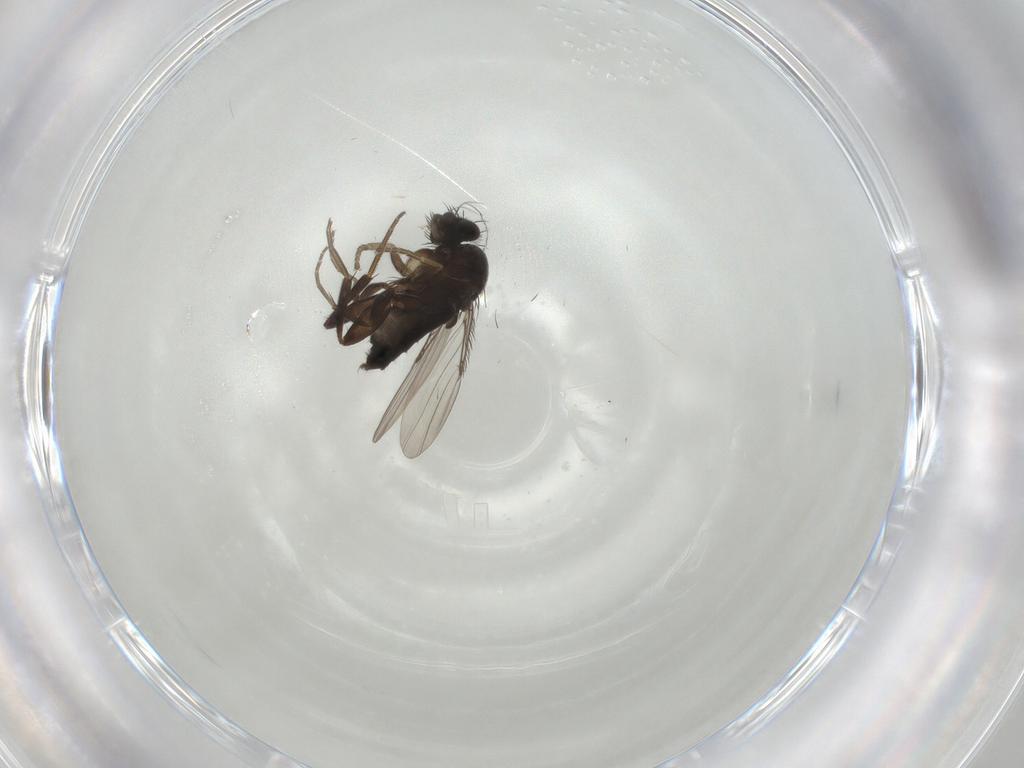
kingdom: Animalia
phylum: Arthropoda
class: Insecta
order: Diptera
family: Phoridae
